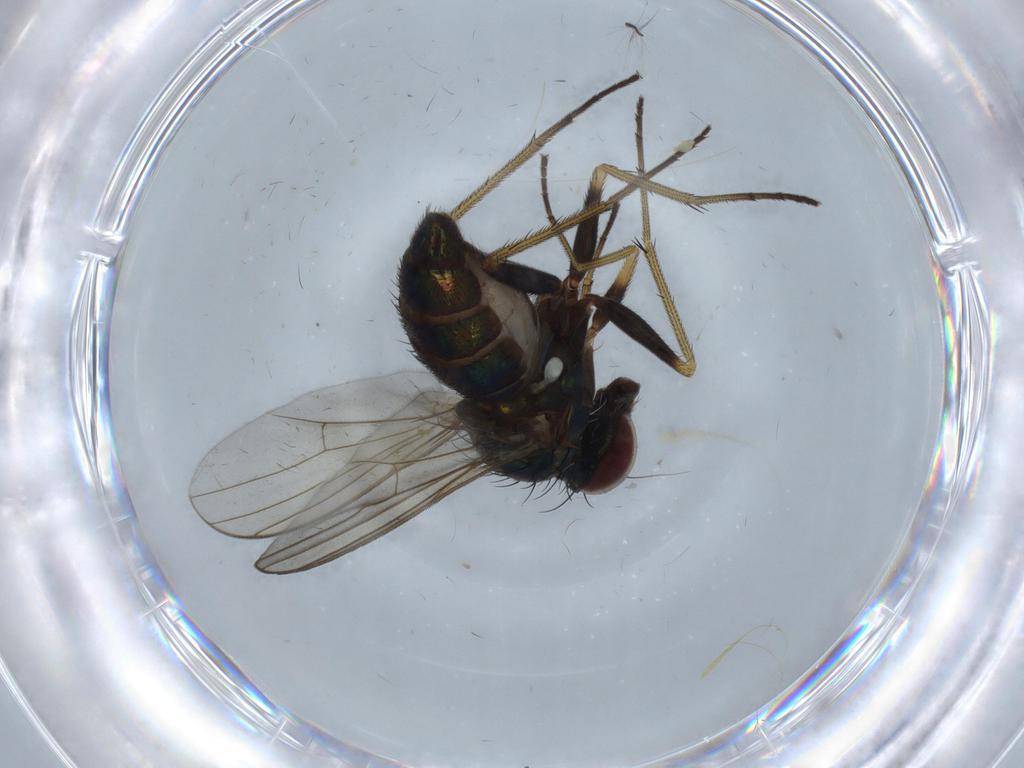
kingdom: Animalia
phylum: Arthropoda
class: Insecta
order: Diptera
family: Dolichopodidae
